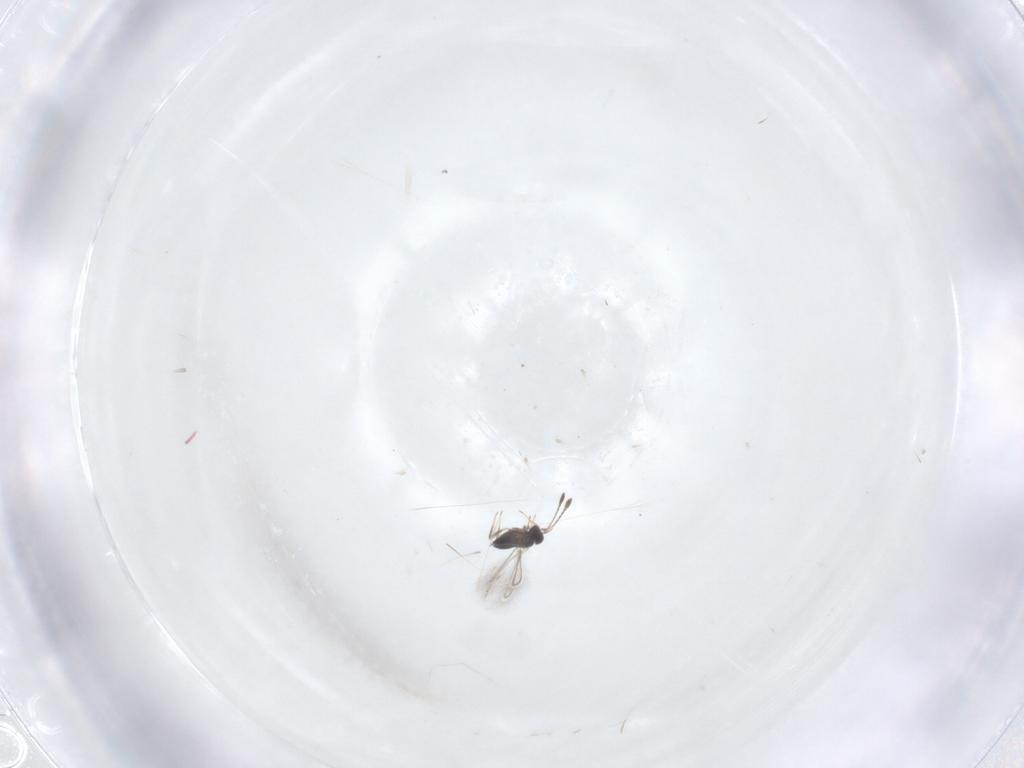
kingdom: Animalia
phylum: Arthropoda
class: Insecta
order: Hymenoptera
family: Mymaridae
